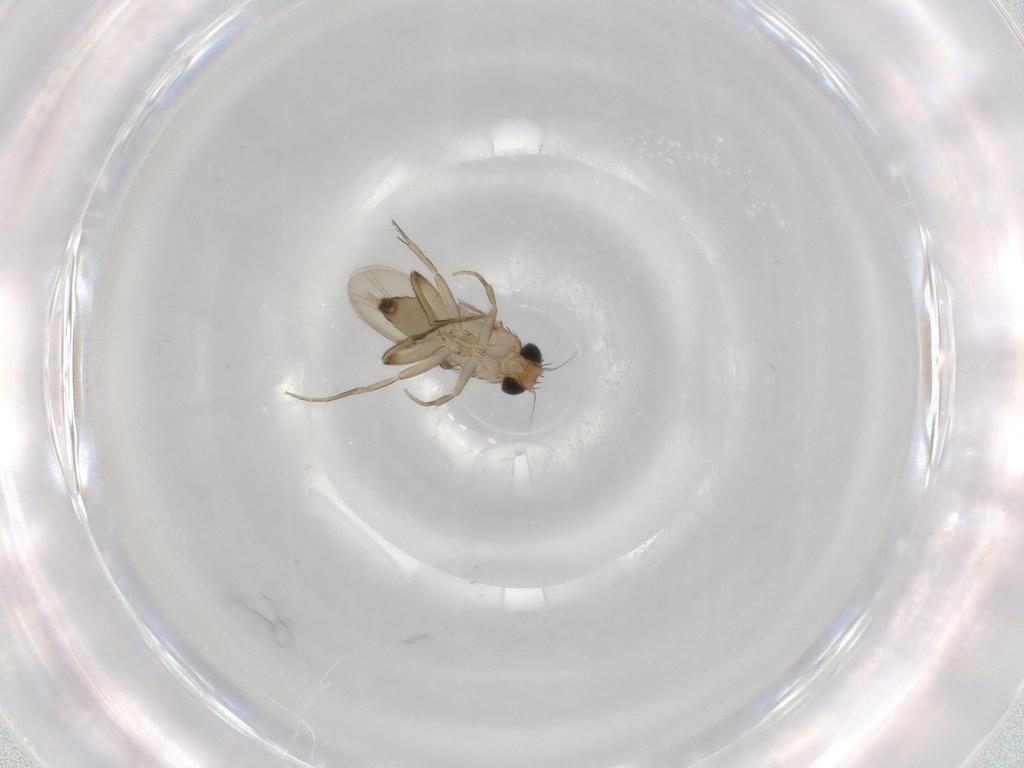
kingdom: Animalia
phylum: Arthropoda
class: Insecta
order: Diptera
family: Phoridae
